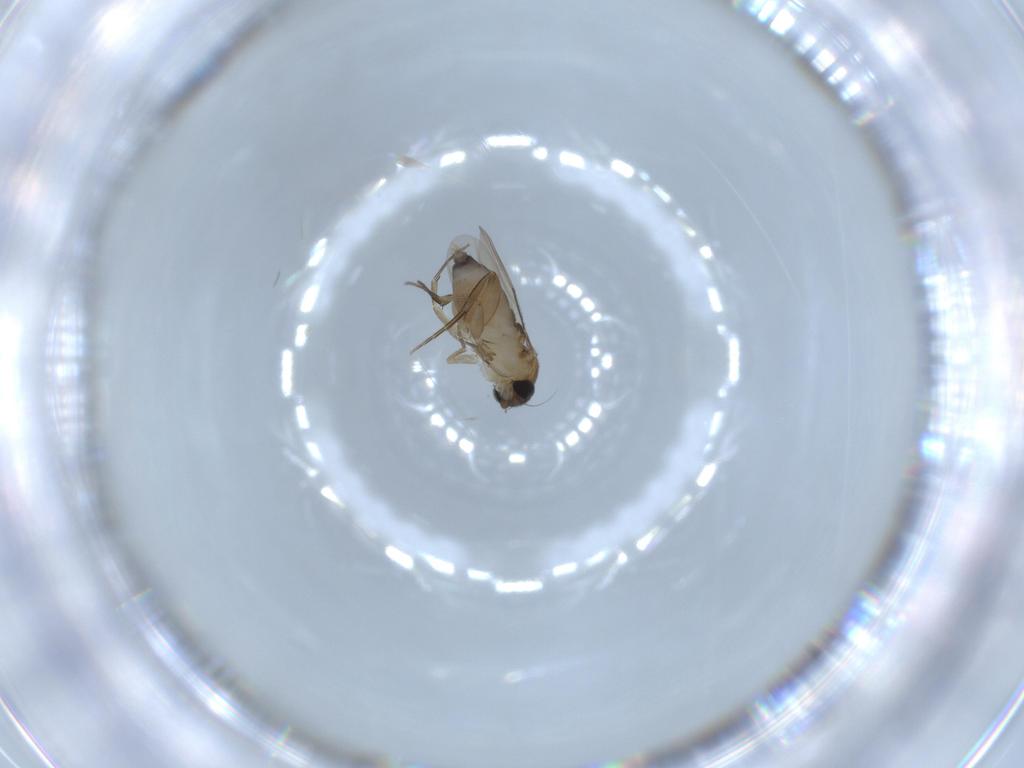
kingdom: Animalia
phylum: Arthropoda
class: Insecta
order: Diptera
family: Phoridae
